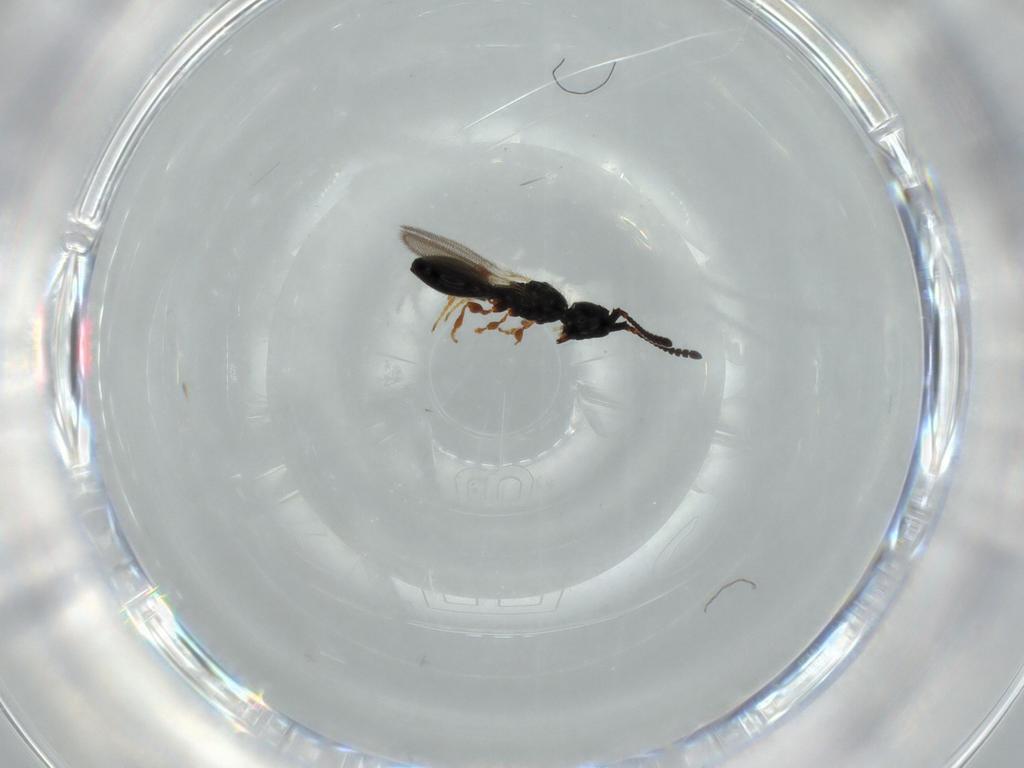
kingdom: Animalia
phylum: Arthropoda
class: Insecta
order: Hymenoptera
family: Diapriidae
